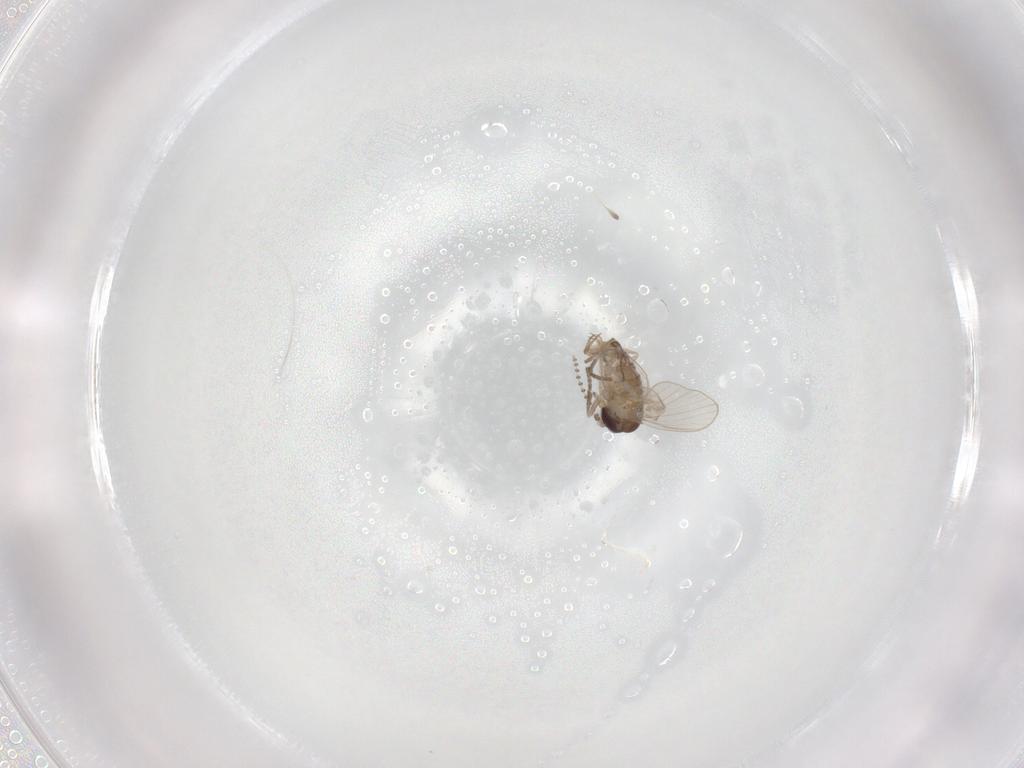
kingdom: Animalia
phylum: Arthropoda
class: Insecta
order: Diptera
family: Psychodidae
